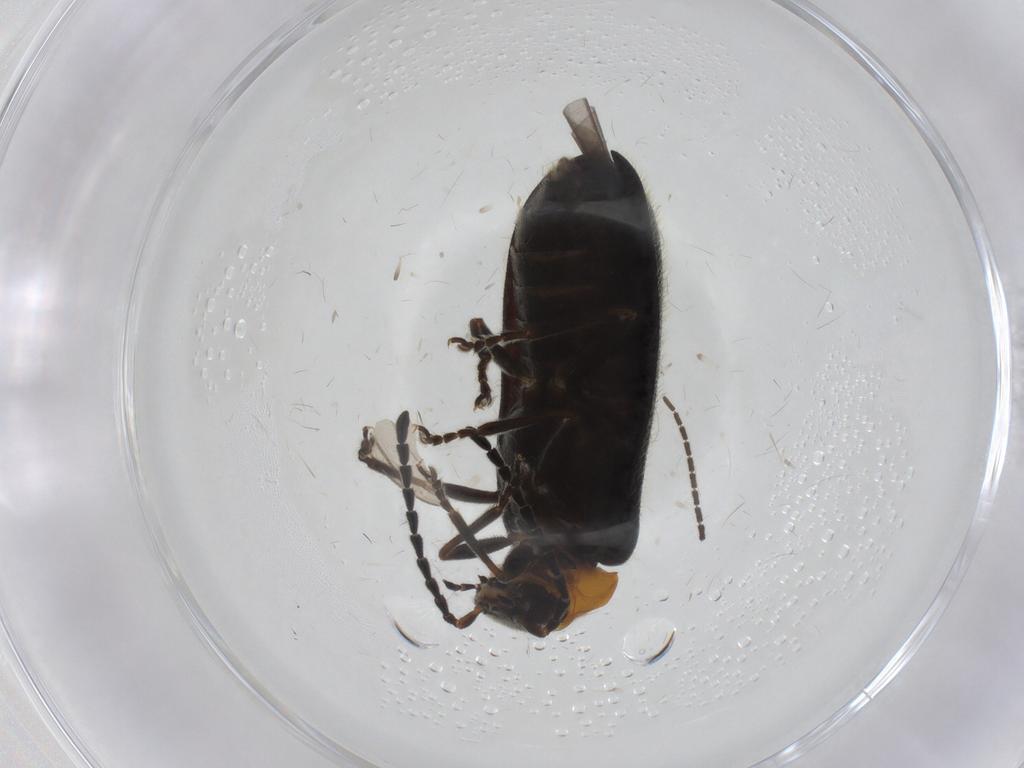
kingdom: Animalia
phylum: Arthropoda
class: Insecta
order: Coleoptera
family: Cantharidae
